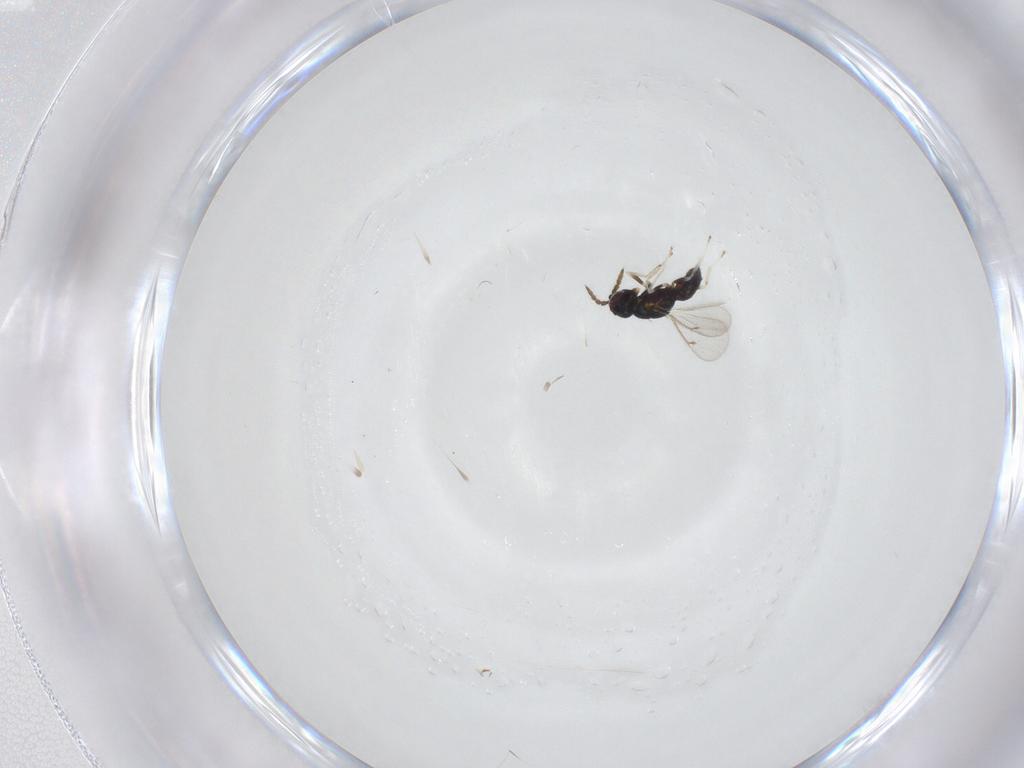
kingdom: Animalia
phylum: Arthropoda
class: Insecta
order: Hymenoptera
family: Eulophidae
